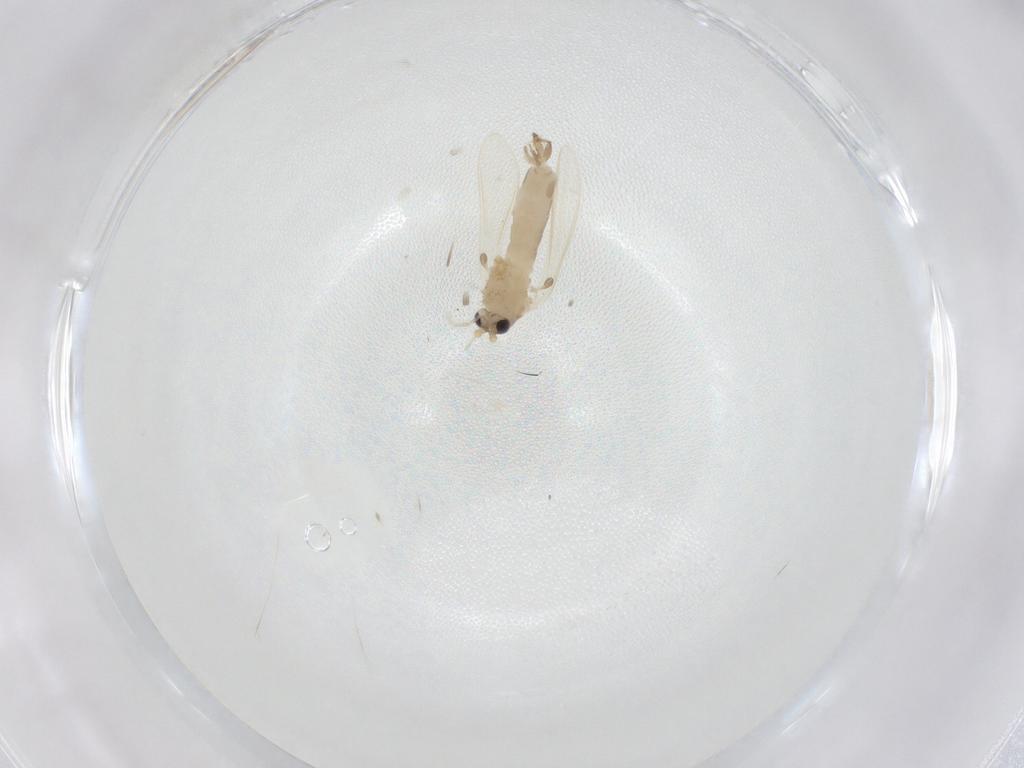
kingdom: Animalia
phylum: Arthropoda
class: Insecta
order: Diptera
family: Psychodidae
